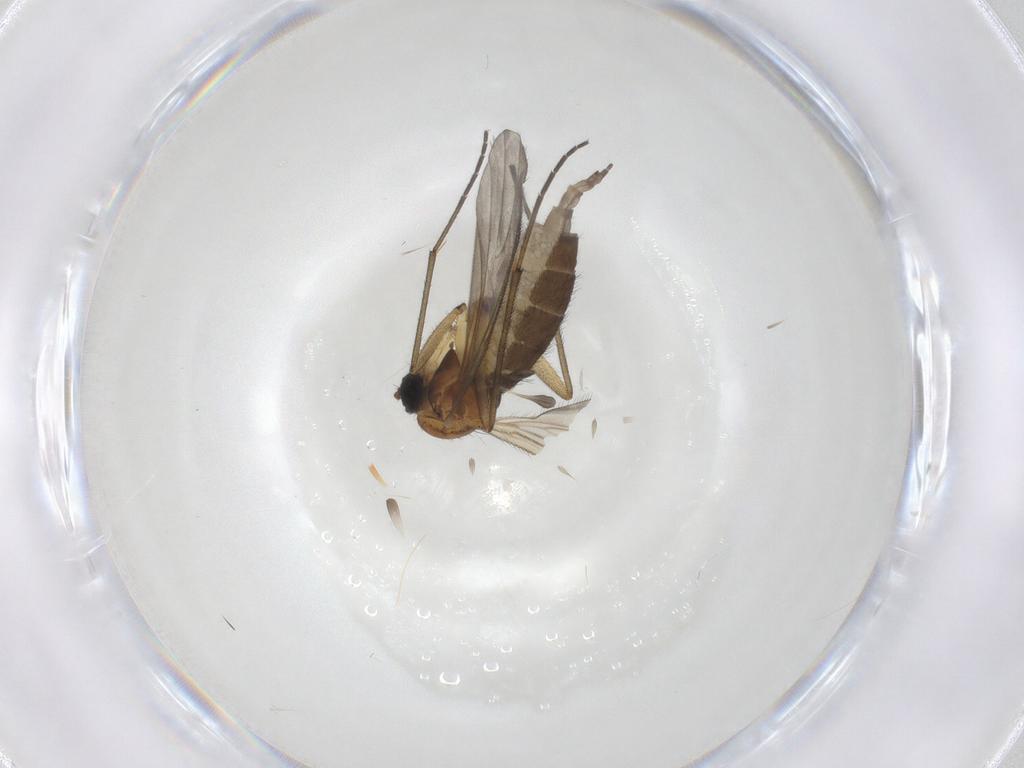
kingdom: Animalia
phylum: Arthropoda
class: Insecta
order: Diptera
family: Sciaridae
